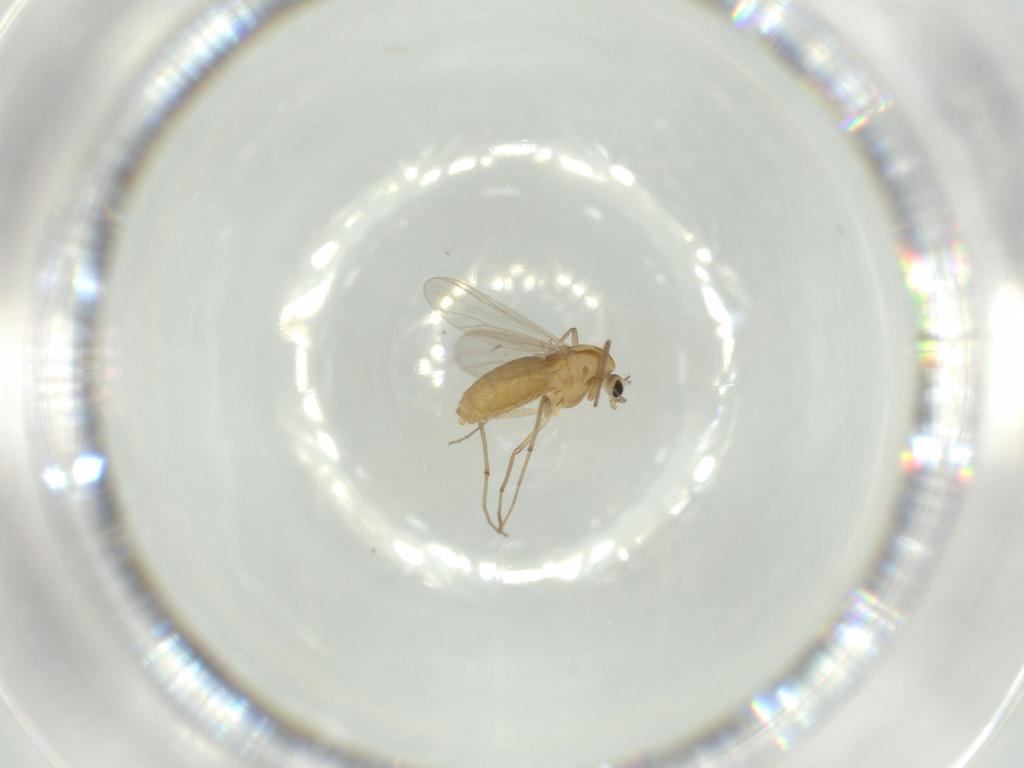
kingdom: Animalia
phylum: Arthropoda
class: Insecta
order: Diptera
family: Chironomidae
